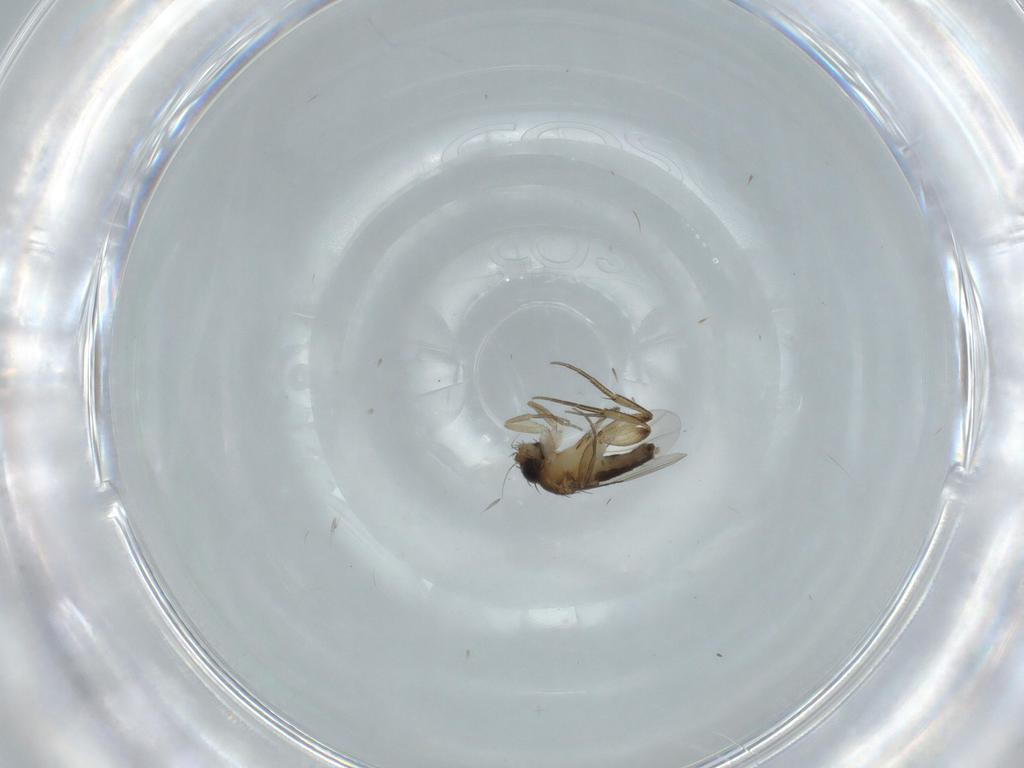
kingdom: Animalia
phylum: Arthropoda
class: Insecta
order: Diptera
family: Phoridae
